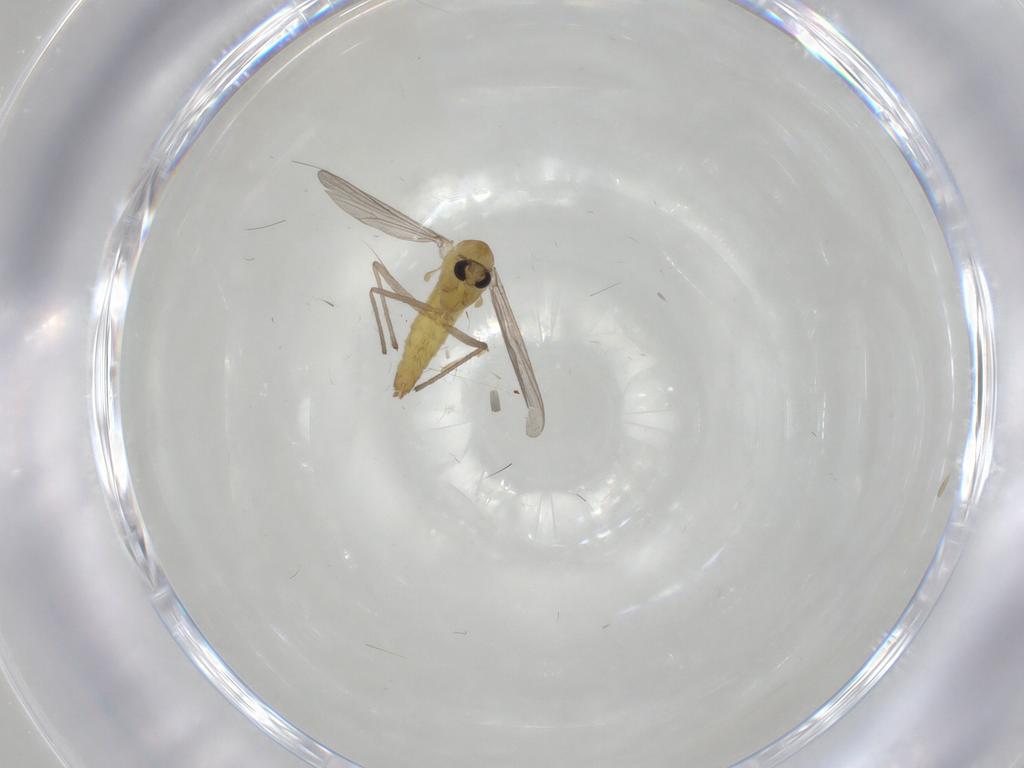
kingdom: Animalia
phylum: Arthropoda
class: Insecta
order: Diptera
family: Chironomidae
